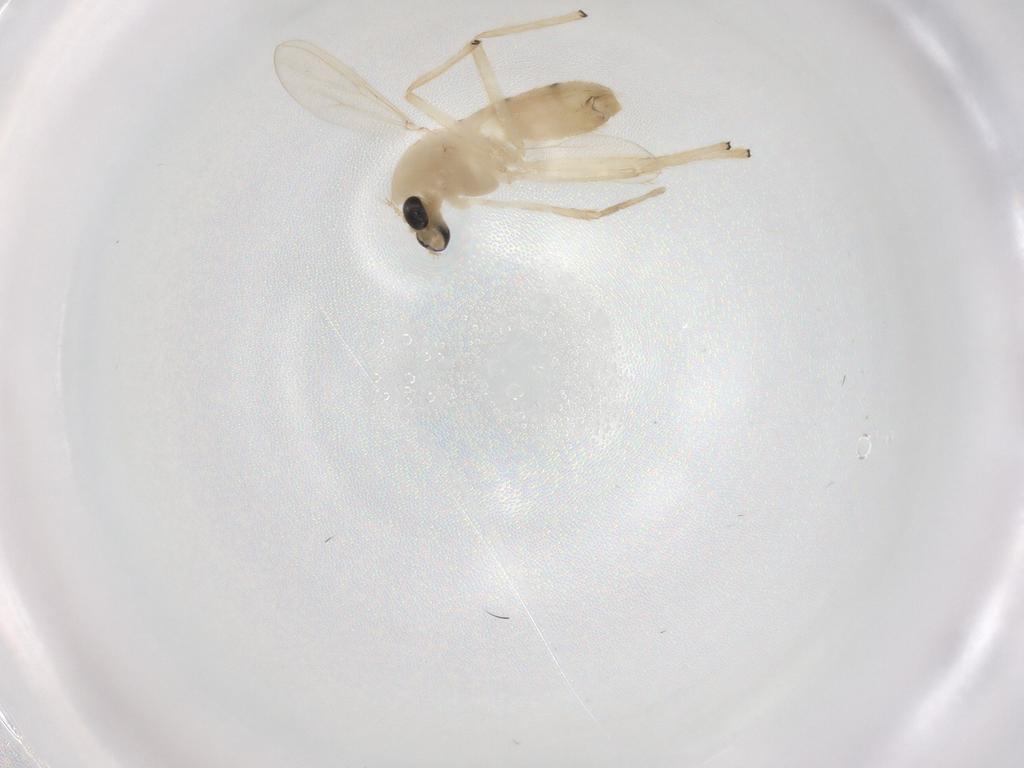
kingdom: Animalia
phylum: Arthropoda
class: Insecta
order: Diptera
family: Chironomidae
